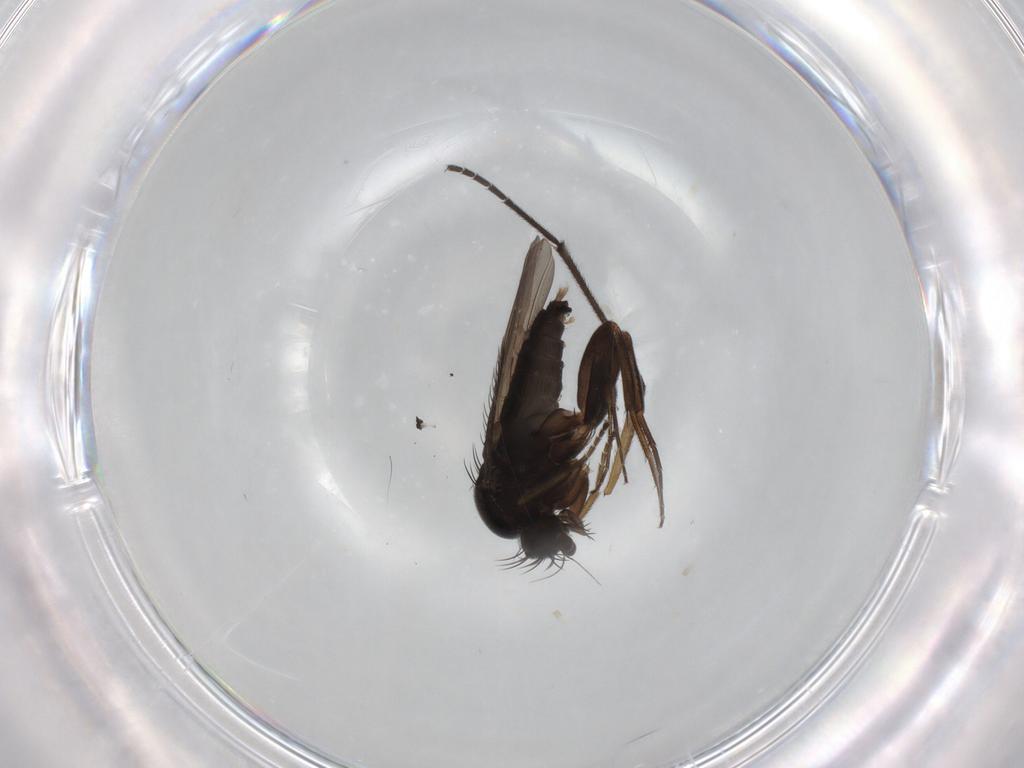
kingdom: Animalia
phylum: Arthropoda
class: Insecta
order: Diptera
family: Phoridae
